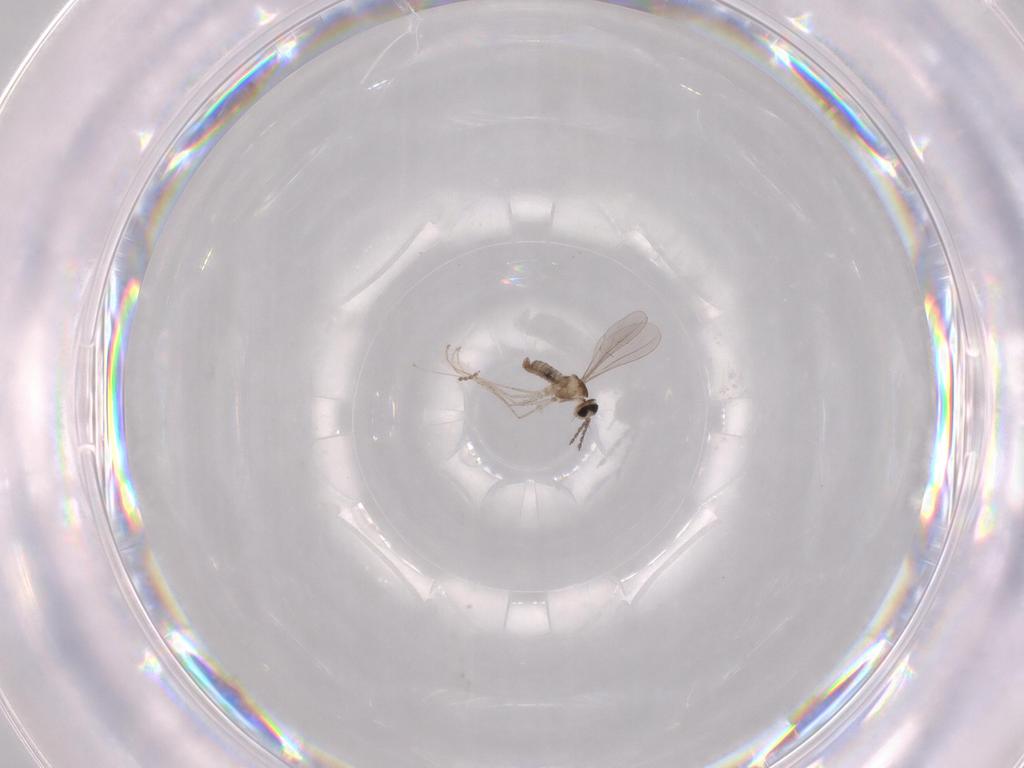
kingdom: Animalia
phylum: Arthropoda
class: Insecta
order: Diptera
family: Cecidomyiidae
